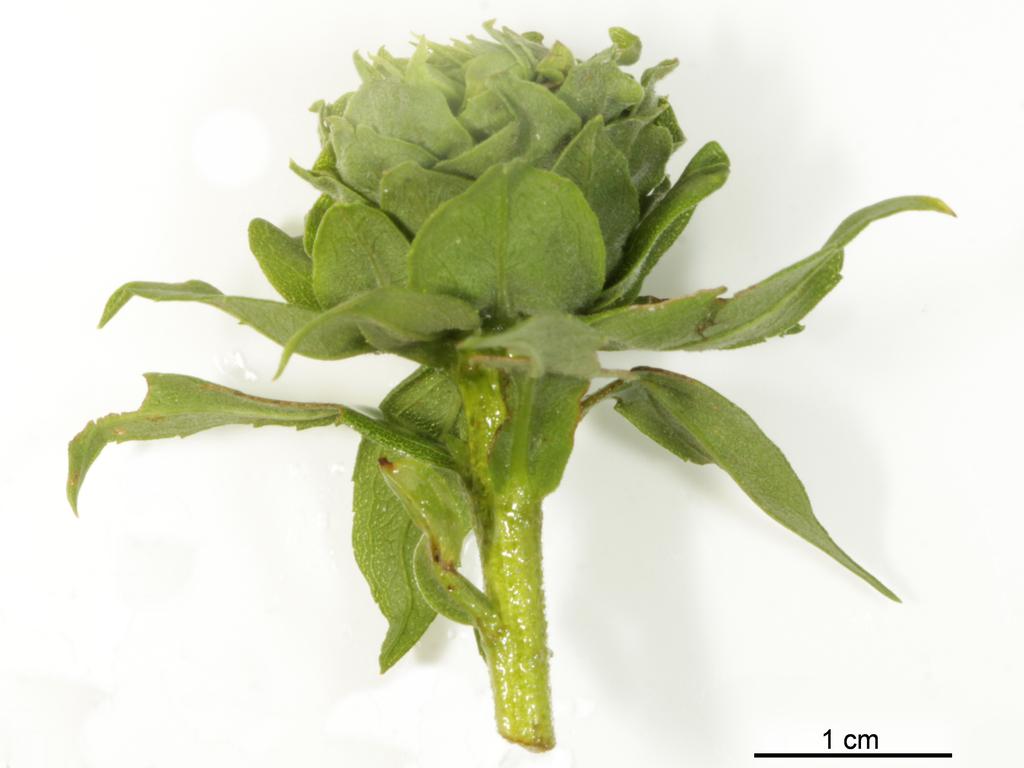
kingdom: Animalia
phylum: Arthropoda
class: Insecta
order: Hymenoptera
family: Pteromalidae
